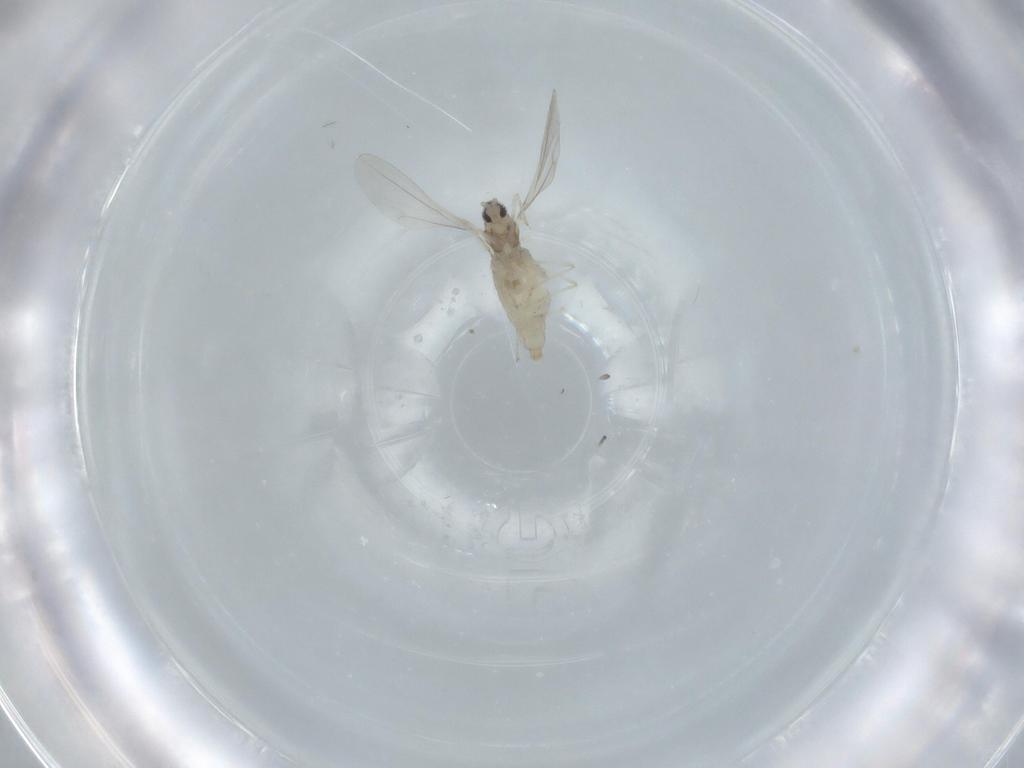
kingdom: Animalia
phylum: Arthropoda
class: Insecta
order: Diptera
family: Cecidomyiidae
